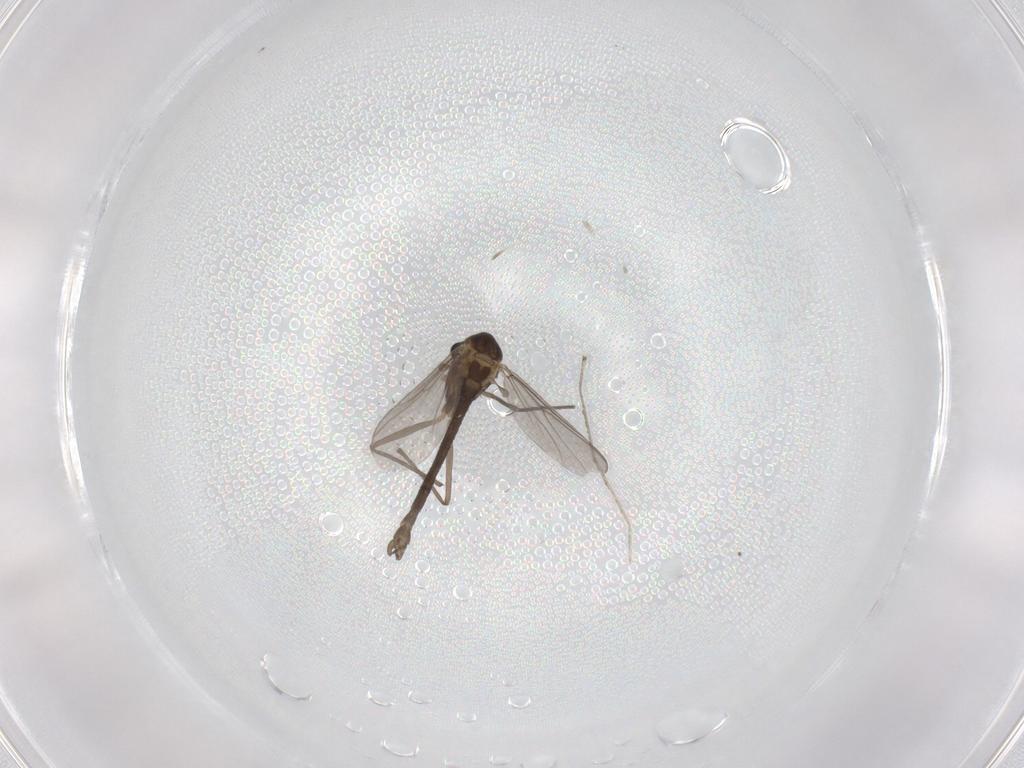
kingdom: Animalia
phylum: Arthropoda
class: Insecta
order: Diptera
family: Chironomidae
